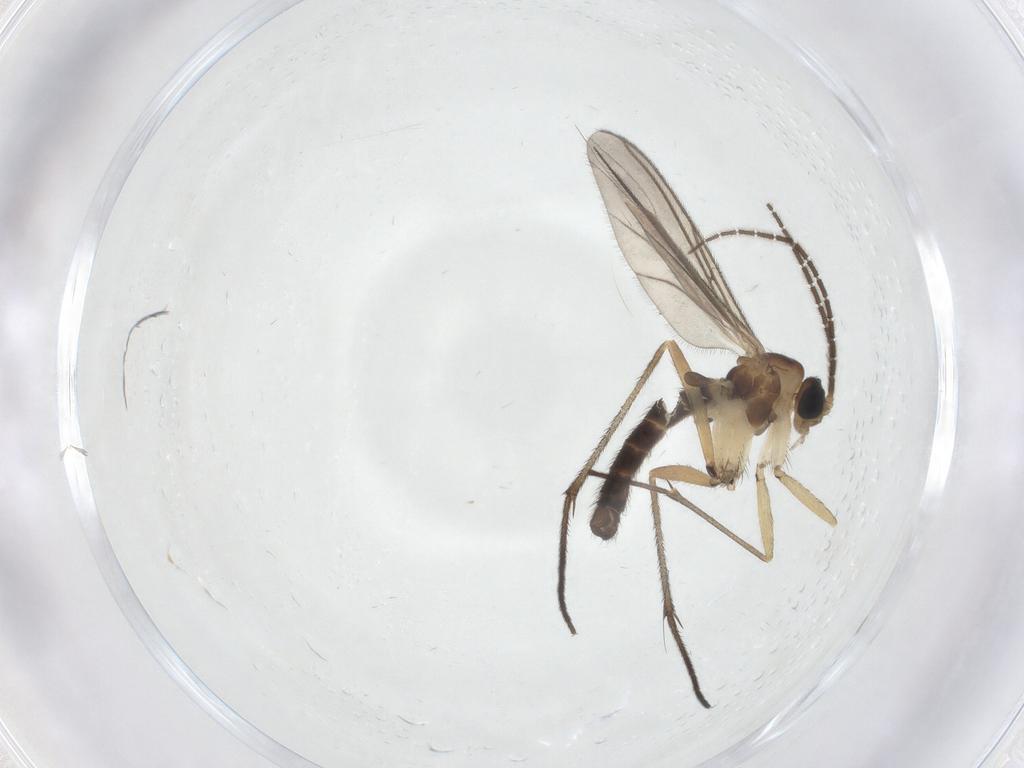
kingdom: Animalia
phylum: Arthropoda
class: Insecta
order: Diptera
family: Sciaridae
